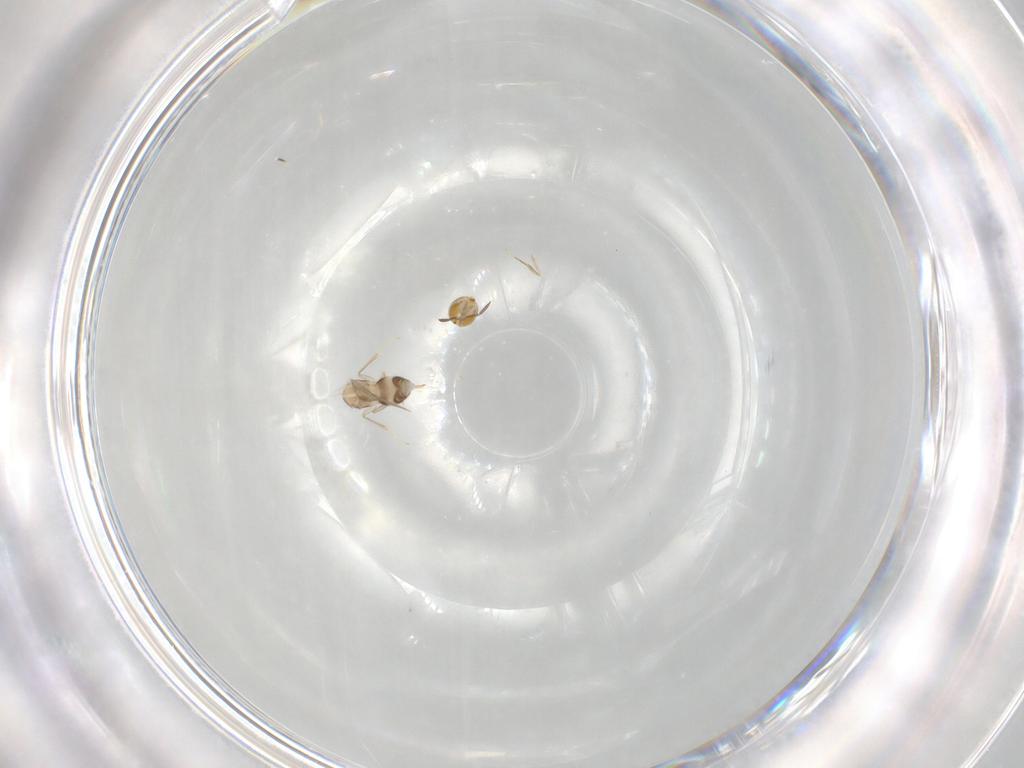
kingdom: Animalia
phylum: Arthropoda
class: Insecta
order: Hymenoptera
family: Aphelinidae
